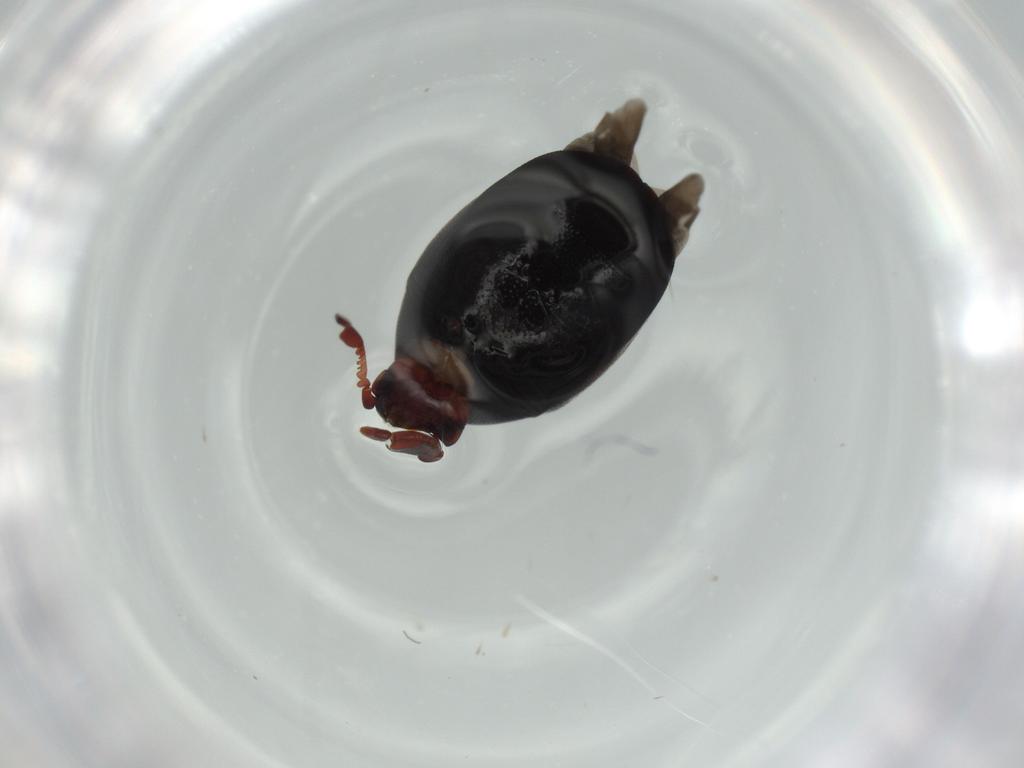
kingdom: Animalia
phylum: Arthropoda
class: Insecta
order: Coleoptera
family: Ptinidae
